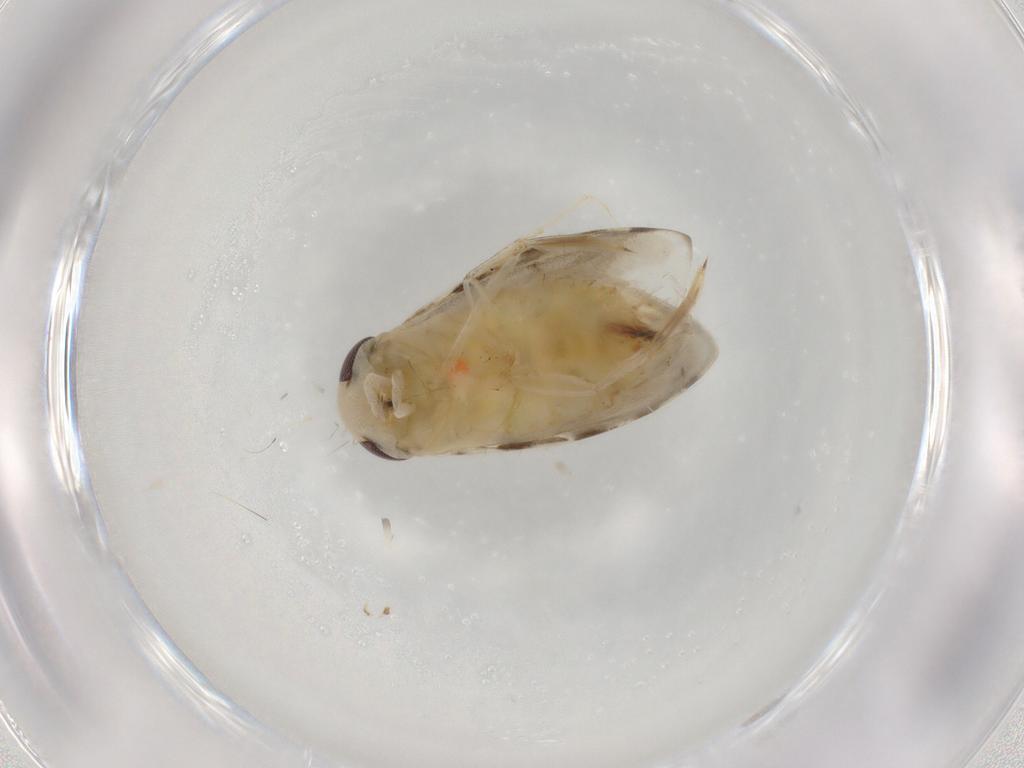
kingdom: Animalia
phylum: Arthropoda
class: Insecta
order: Hemiptera
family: Corixidae
